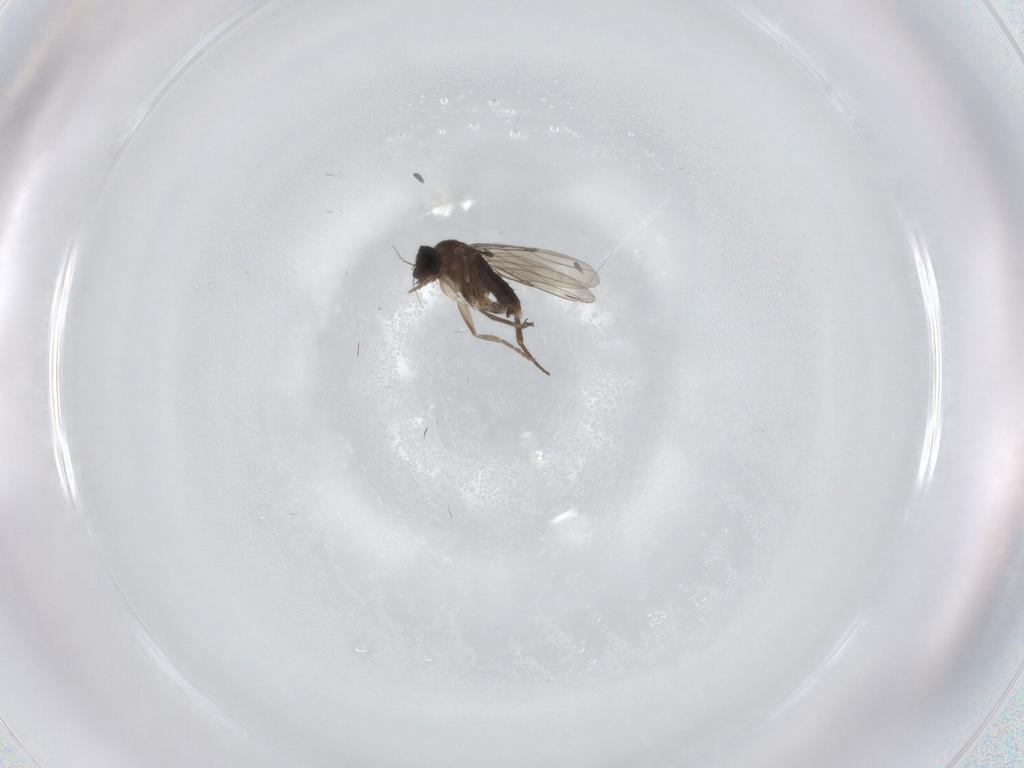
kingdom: Animalia
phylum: Arthropoda
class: Insecta
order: Diptera
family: Phoridae
